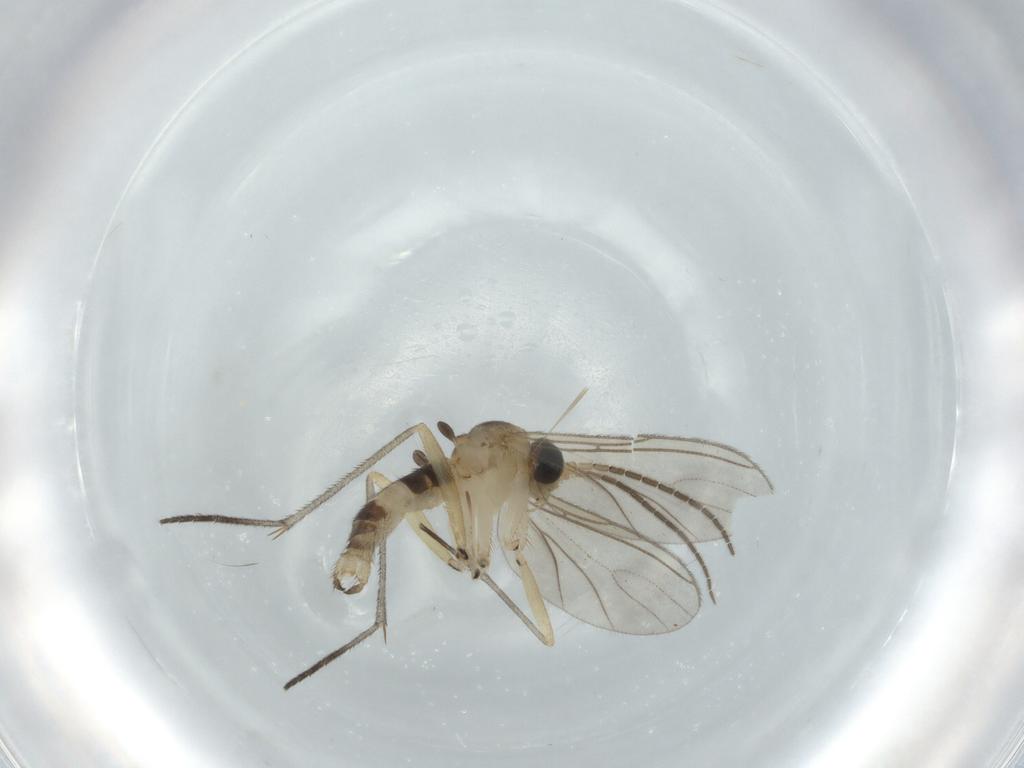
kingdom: Animalia
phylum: Arthropoda
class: Insecta
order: Diptera
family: Sciaridae
